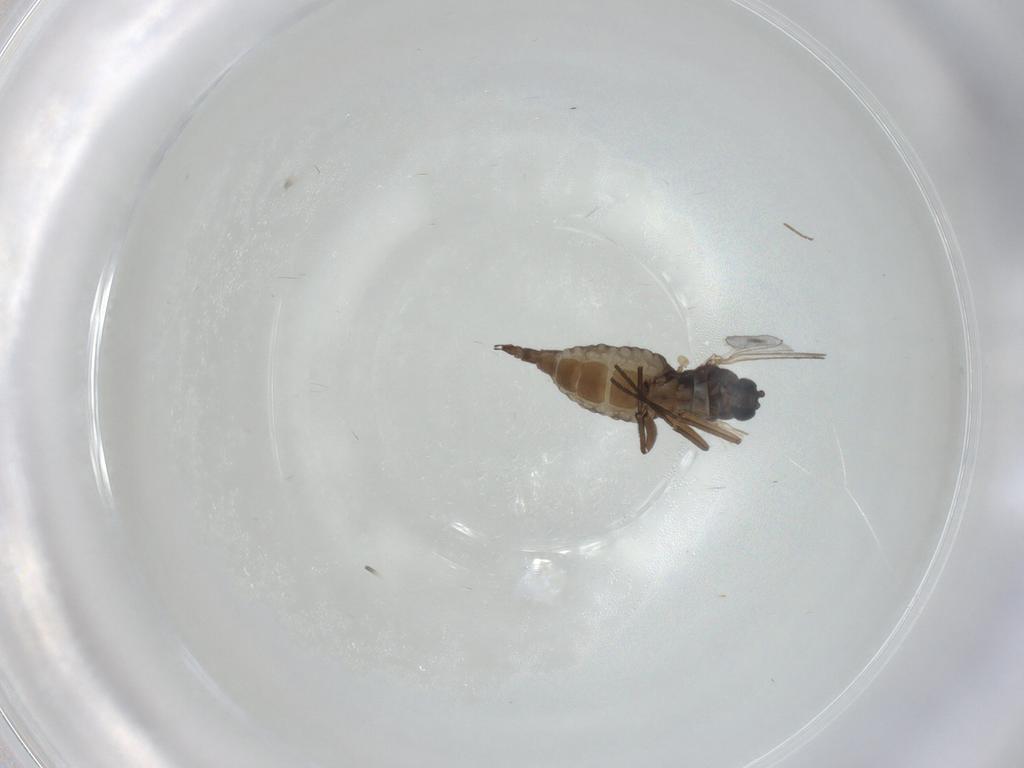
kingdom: Animalia
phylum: Arthropoda
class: Insecta
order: Diptera
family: Sciaridae
